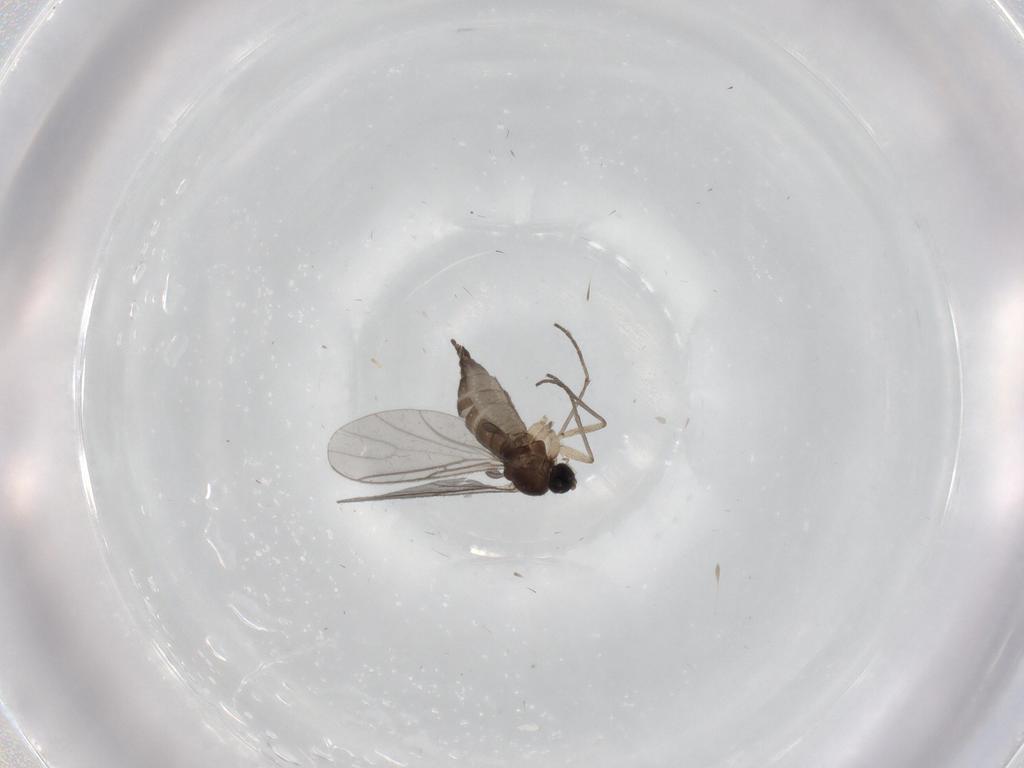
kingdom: Animalia
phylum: Arthropoda
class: Insecta
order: Diptera
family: Sciaridae
